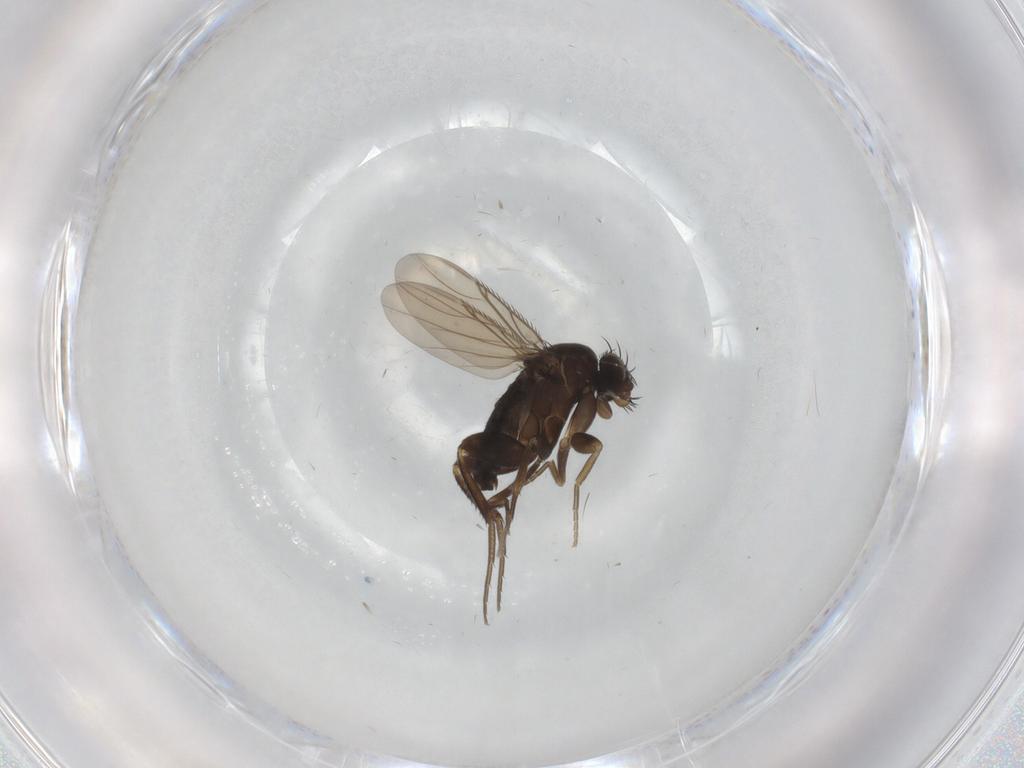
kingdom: Animalia
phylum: Arthropoda
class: Insecta
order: Diptera
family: Phoridae
